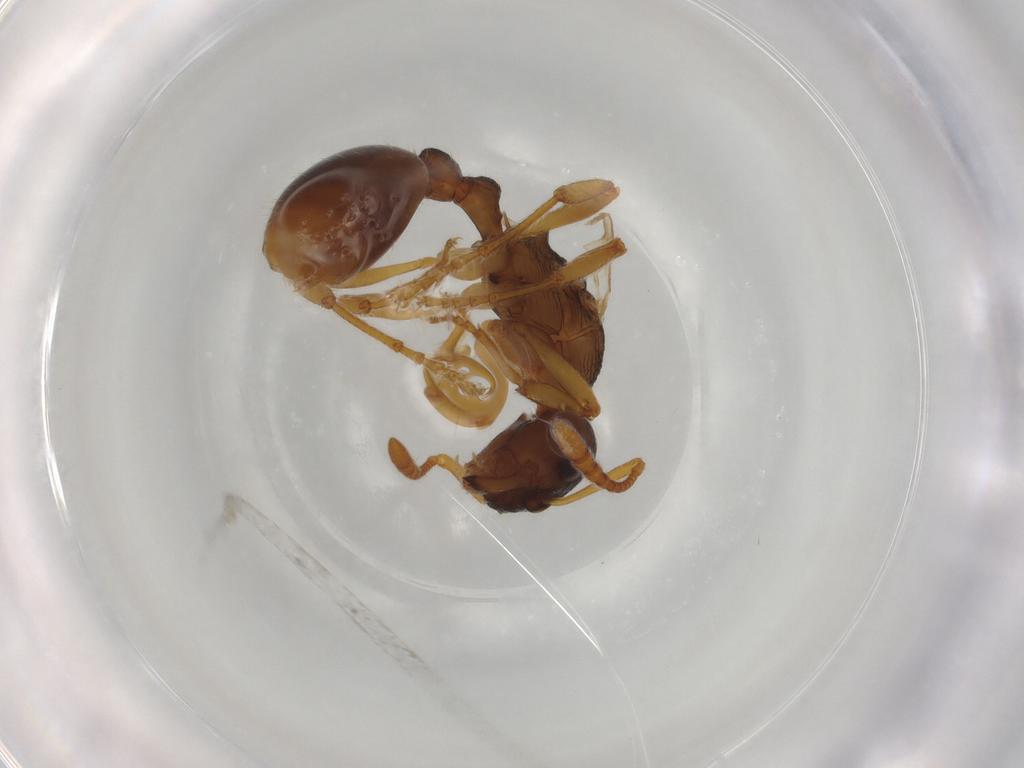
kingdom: Animalia
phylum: Arthropoda
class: Insecta
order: Hymenoptera
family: Formicidae
